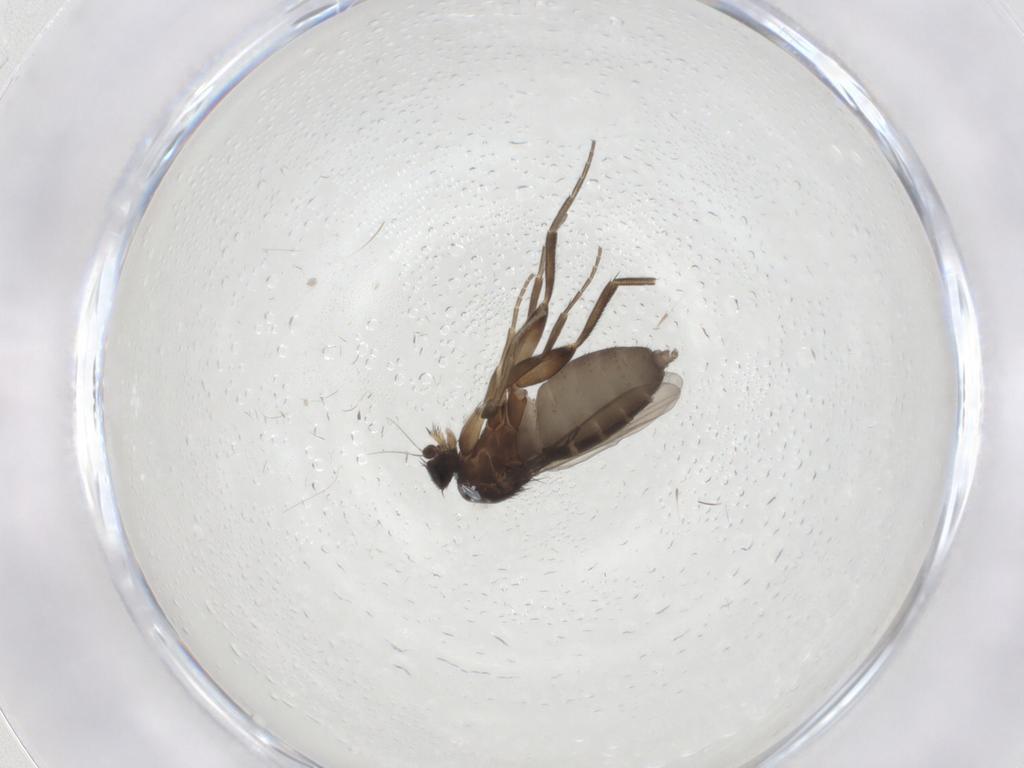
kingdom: Animalia
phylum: Arthropoda
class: Insecta
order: Diptera
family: Phoridae
